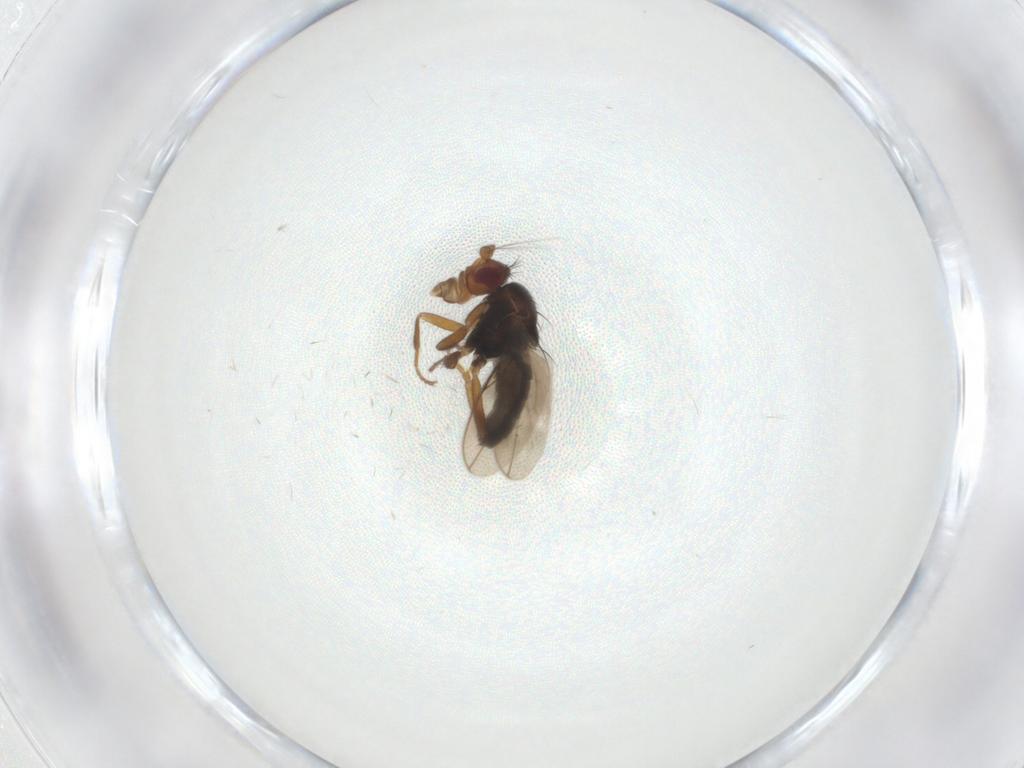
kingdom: Animalia
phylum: Arthropoda
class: Insecta
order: Diptera
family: Sphaeroceridae
